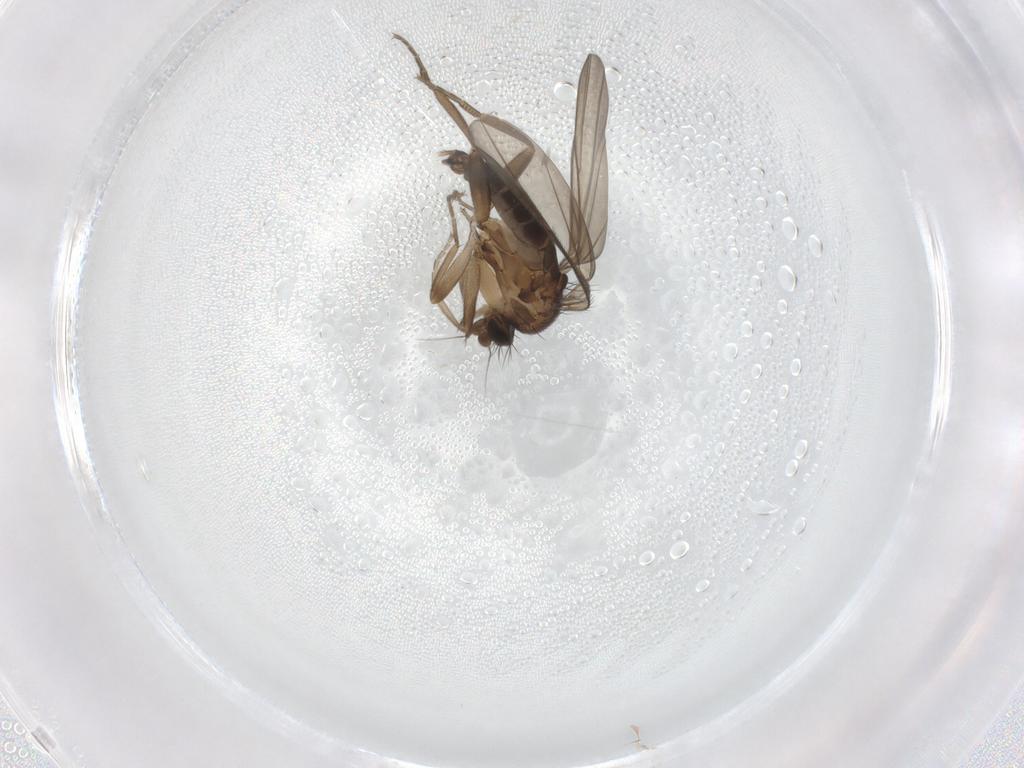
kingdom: Animalia
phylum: Arthropoda
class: Insecta
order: Diptera
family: Phoridae
